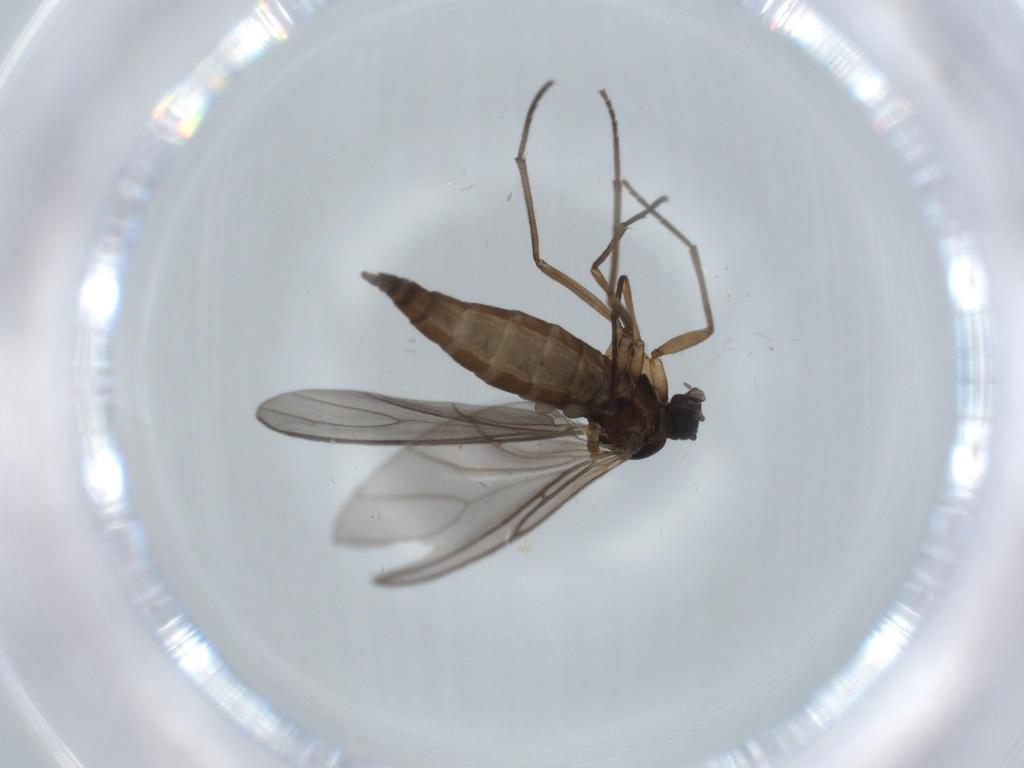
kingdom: Animalia
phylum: Arthropoda
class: Insecta
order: Diptera
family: Sciaridae
